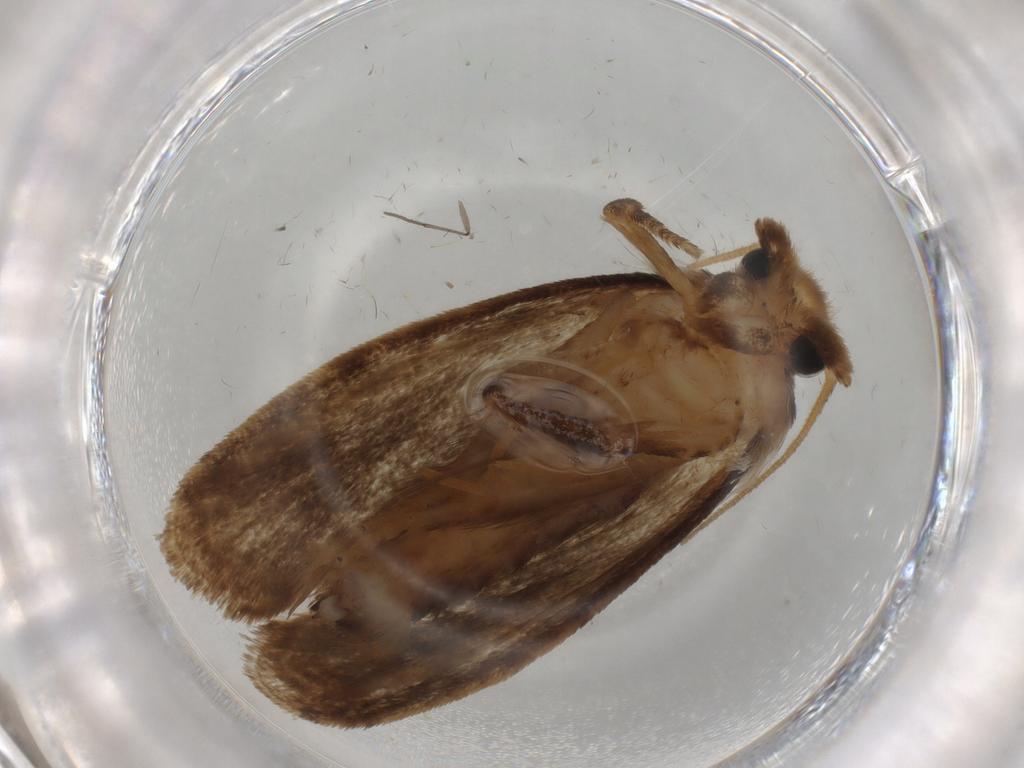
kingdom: Animalia
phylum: Arthropoda
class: Insecta
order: Lepidoptera
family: Tineidae
